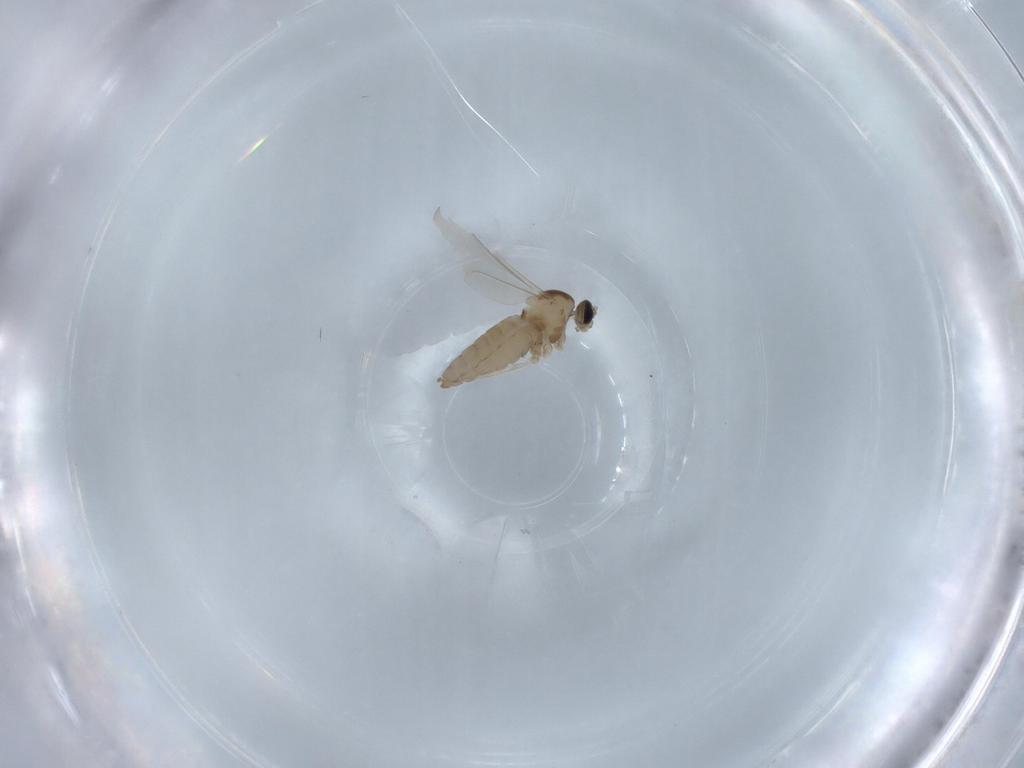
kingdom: Animalia
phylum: Arthropoda
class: Insecta
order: Diptera
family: Cecidomyiidae
